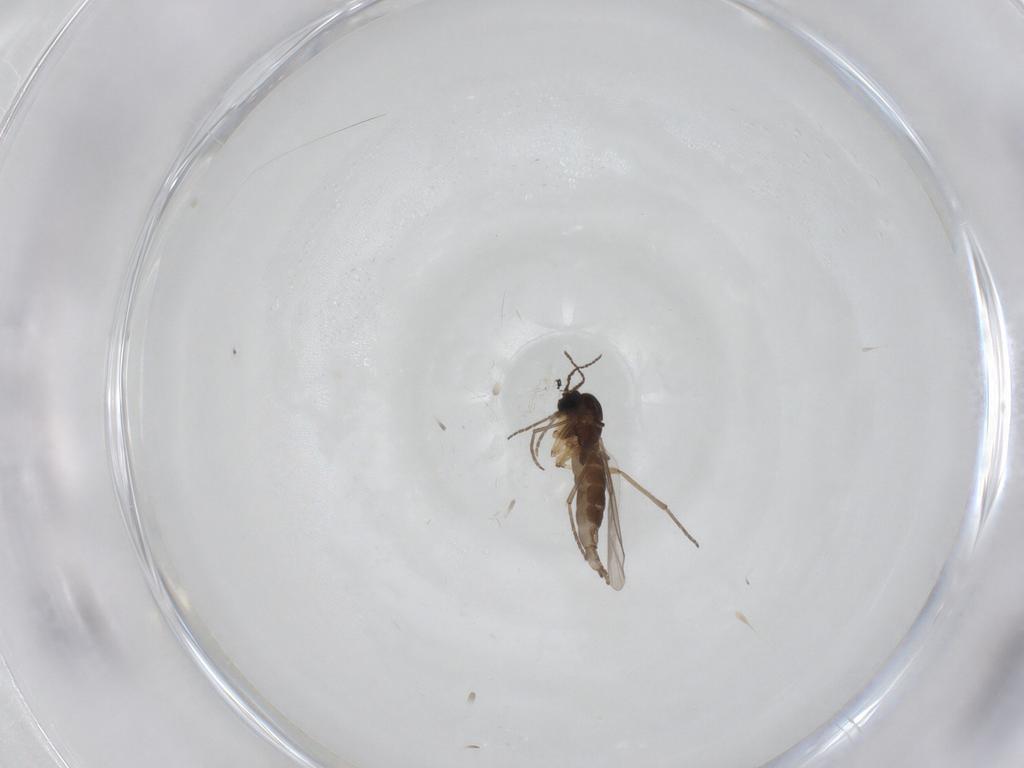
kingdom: Animalia
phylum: Arthropoda
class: Insecta
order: Diptera
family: Sciaridae
